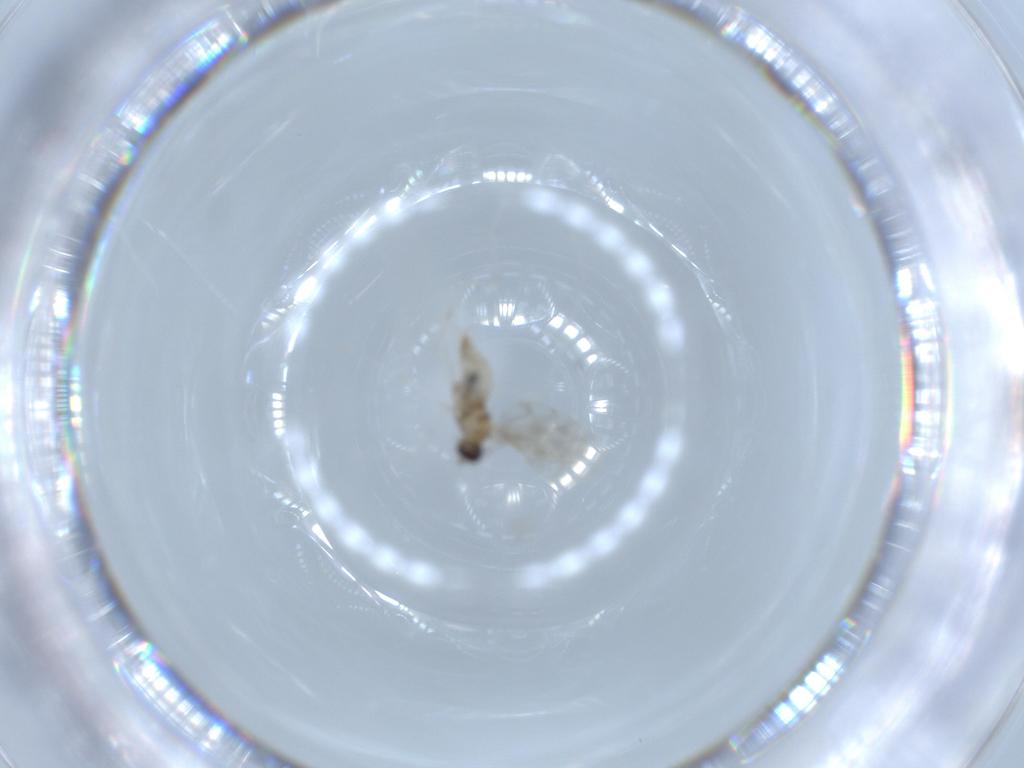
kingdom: Animalia
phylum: Arthropoda
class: Insecta
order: Diptera
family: Cecidomyiidae
